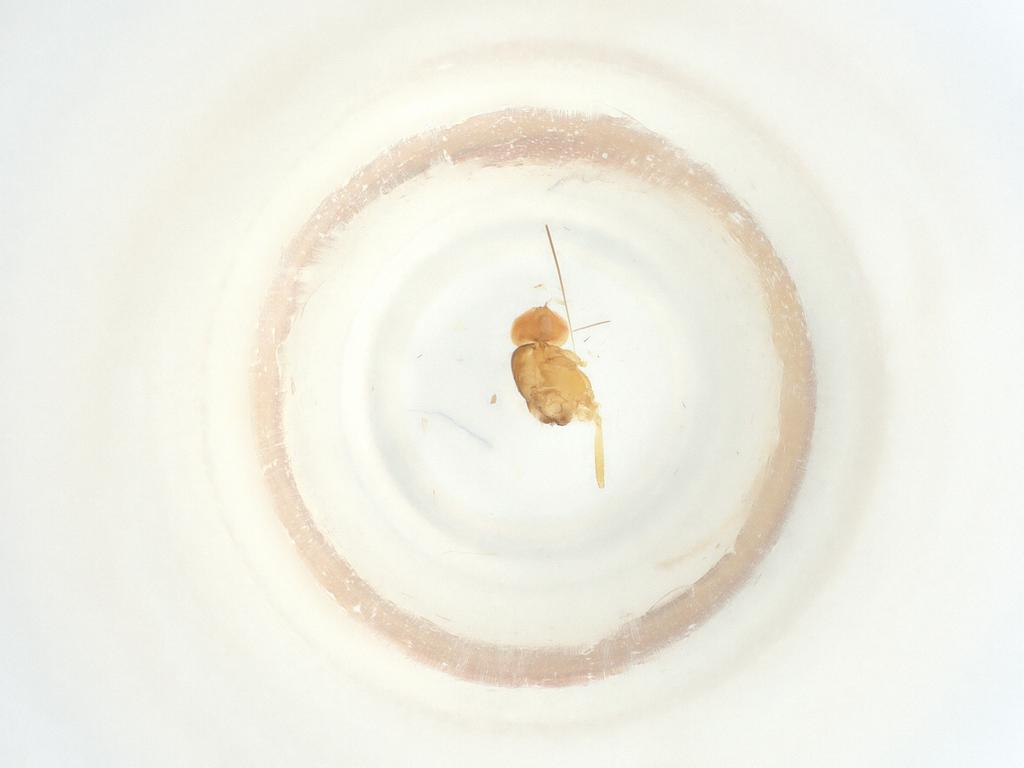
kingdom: Animalia
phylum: Arthropoda
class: Insecta
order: Diptera
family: Periscelididae
